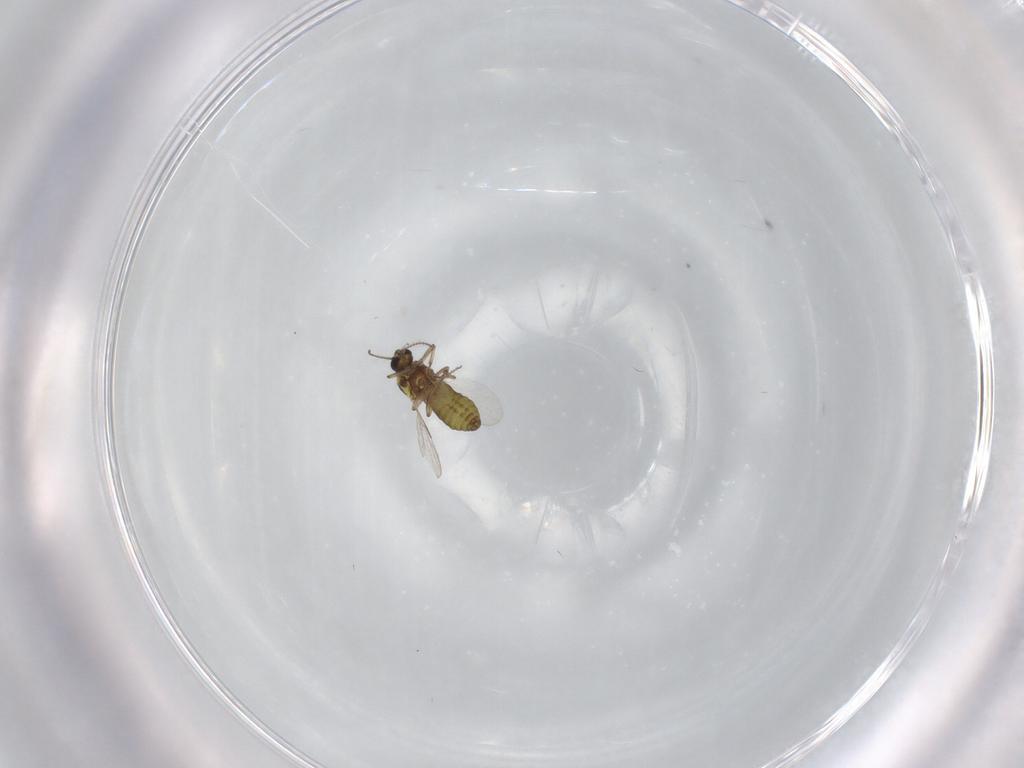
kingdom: Animalia
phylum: Arthropoda
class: Insecta
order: Diptera
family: Ceratopogonidae
